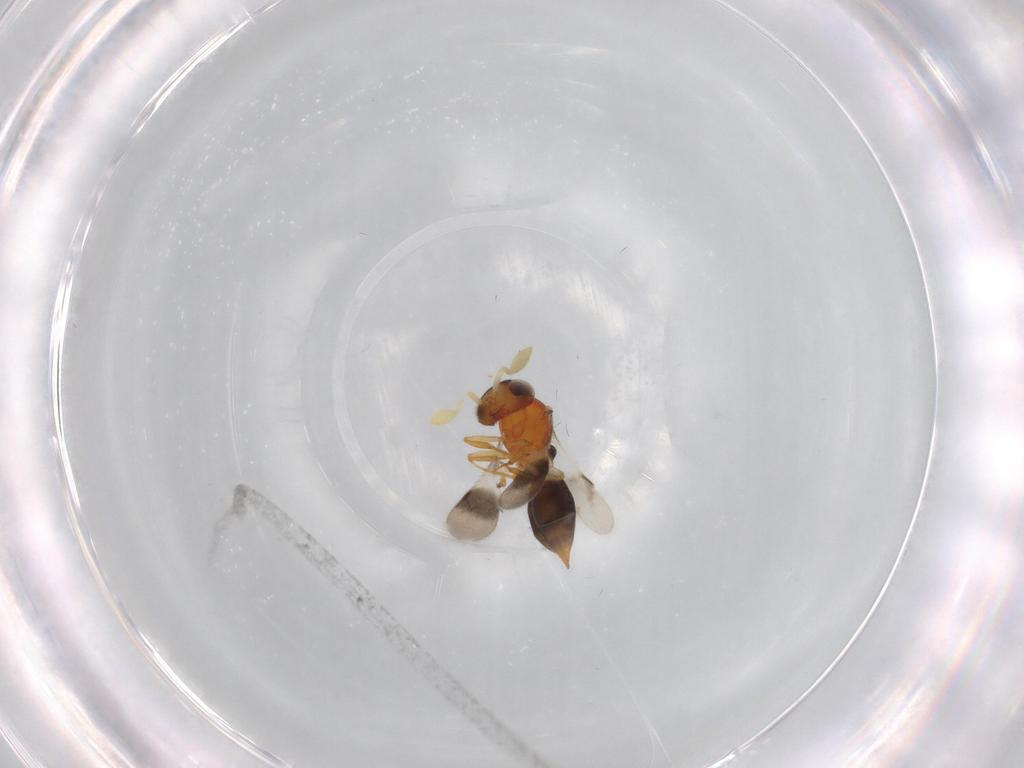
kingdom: Animalia
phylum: Arthropoda
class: Insecta
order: Hymenoptera
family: Scelionidae
